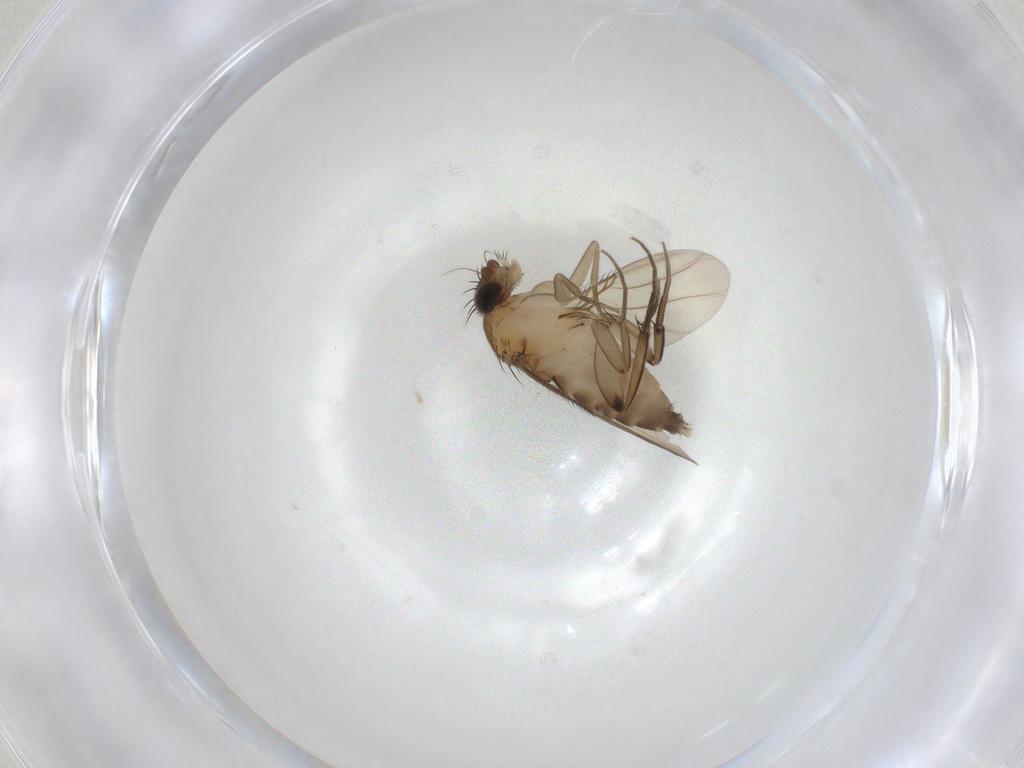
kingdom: Animalia
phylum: Arthropoda
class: Insecta
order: Diptera
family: Phoridae
